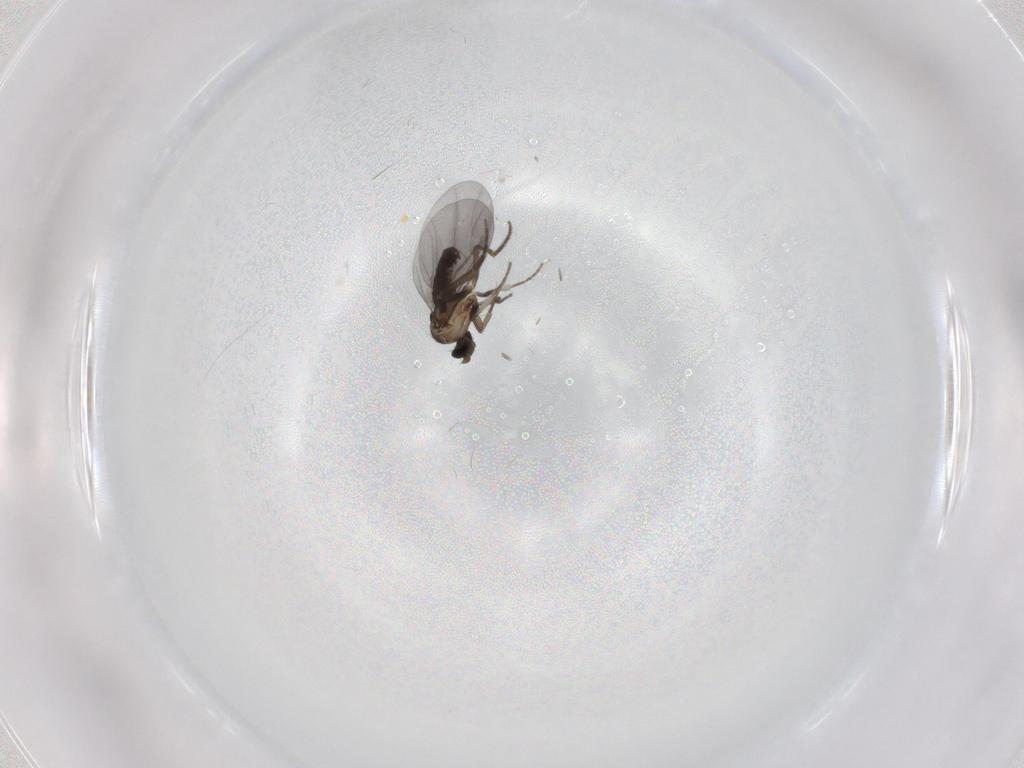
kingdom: Animalia
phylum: Arthropoda
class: Insecta
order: Diptera
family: Phoridae
